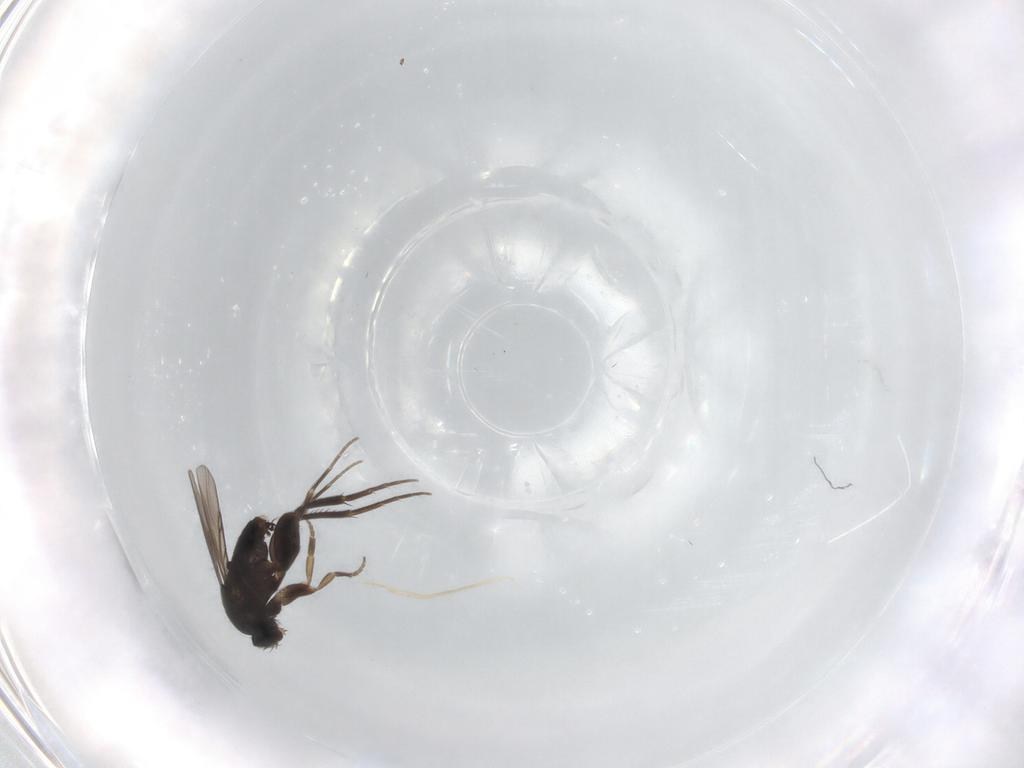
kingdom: Animalia
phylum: Arthropoda
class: Insecta
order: Diptera
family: Phoridae
